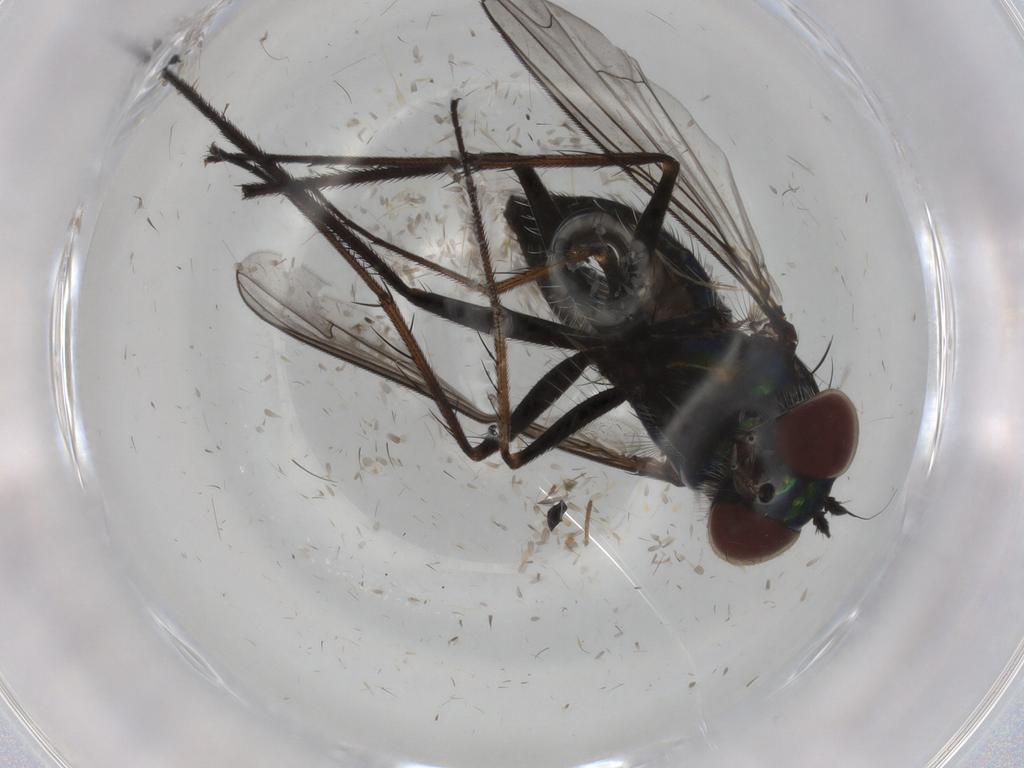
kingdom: Animalia
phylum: Arthropoda
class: Insecta
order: Diptera
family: Dolichopodidae
